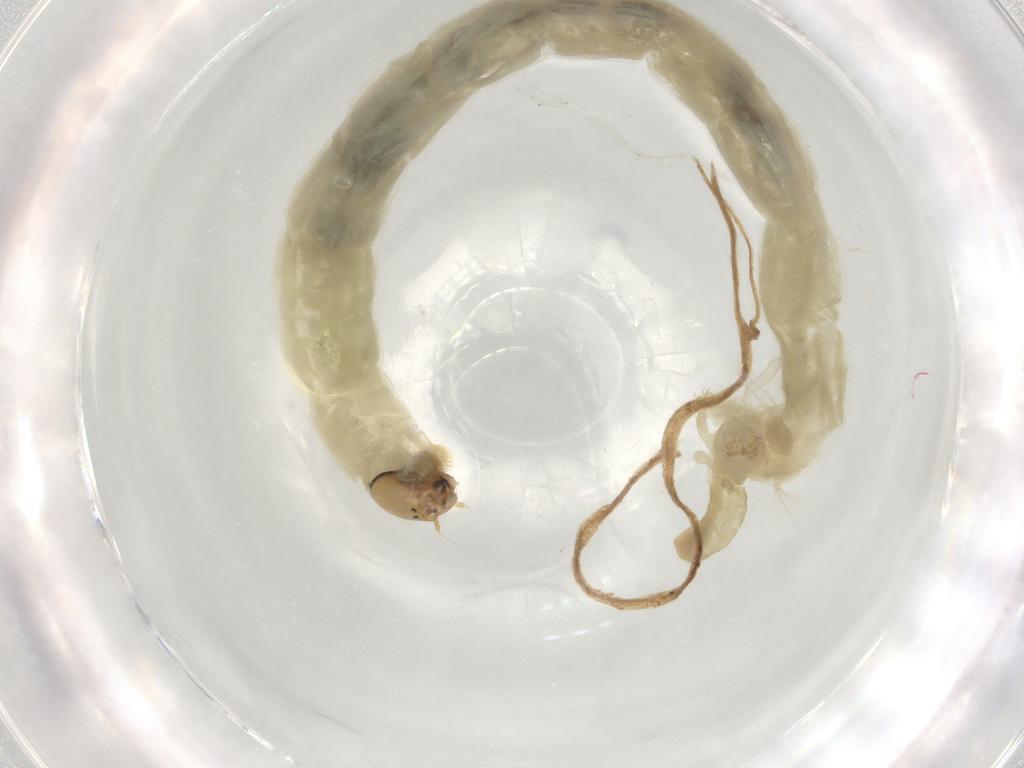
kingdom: Animalia
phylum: Arthropoda
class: Insecta
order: Diptera
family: Chironomidae
